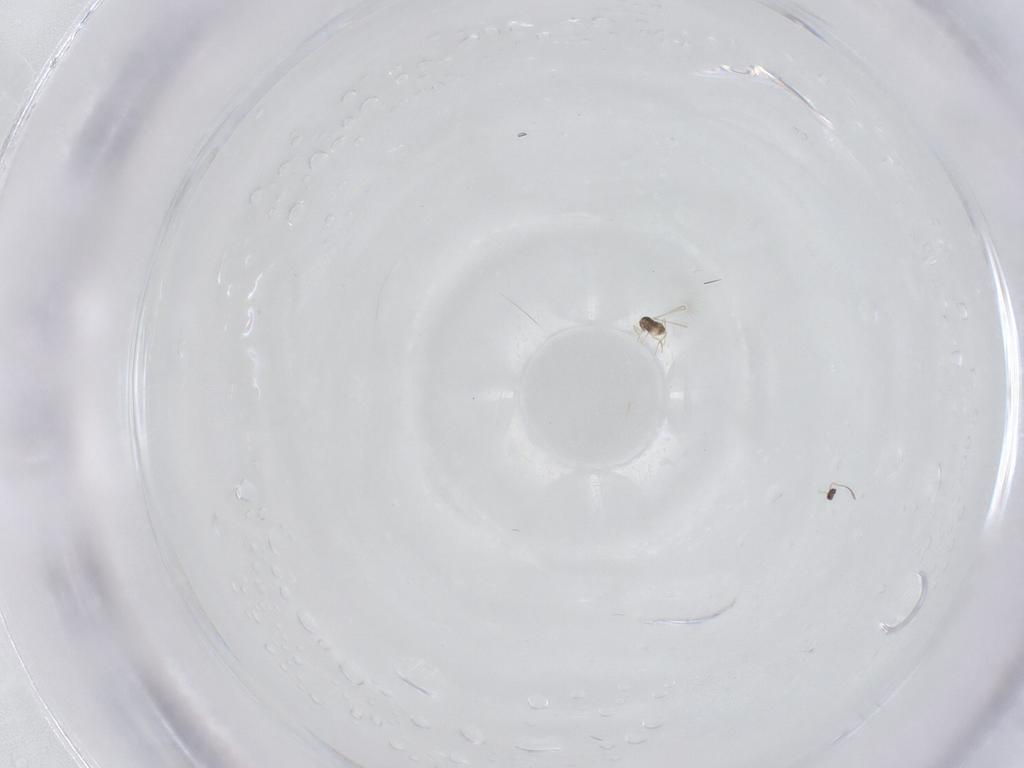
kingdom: Animalia
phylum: Arthropoda
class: Insecta
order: Hymenoptera
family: Mymaridae
